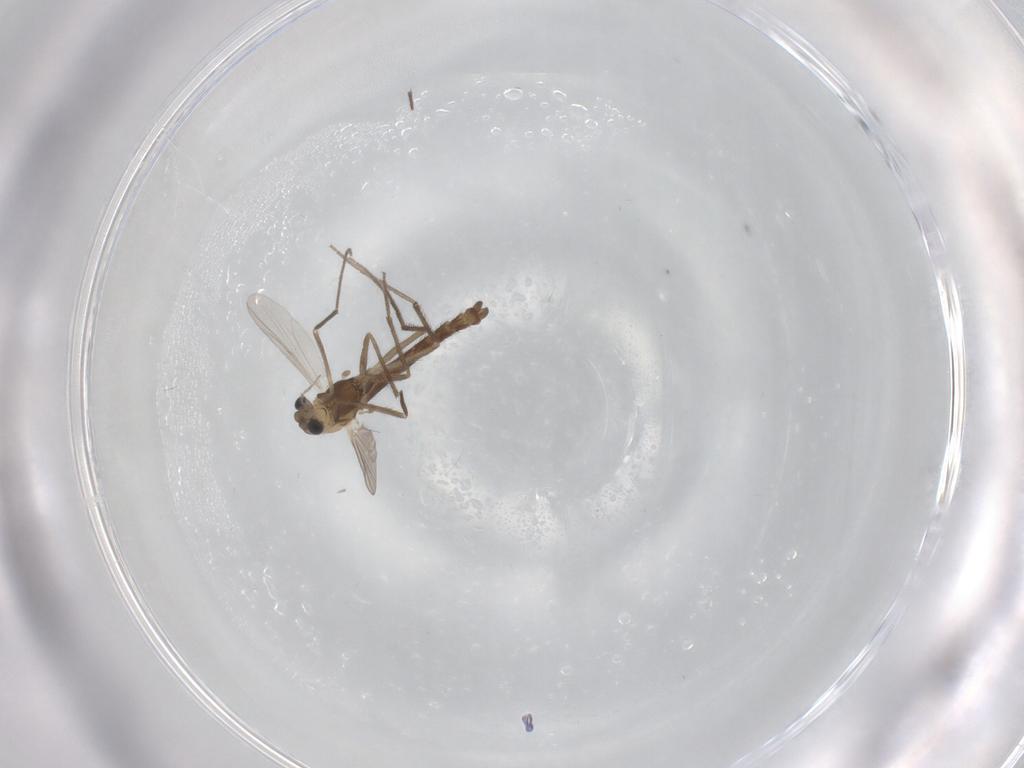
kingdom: Animalia
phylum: Arthropoda
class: Insecta
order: Diptera
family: Chironomidae
